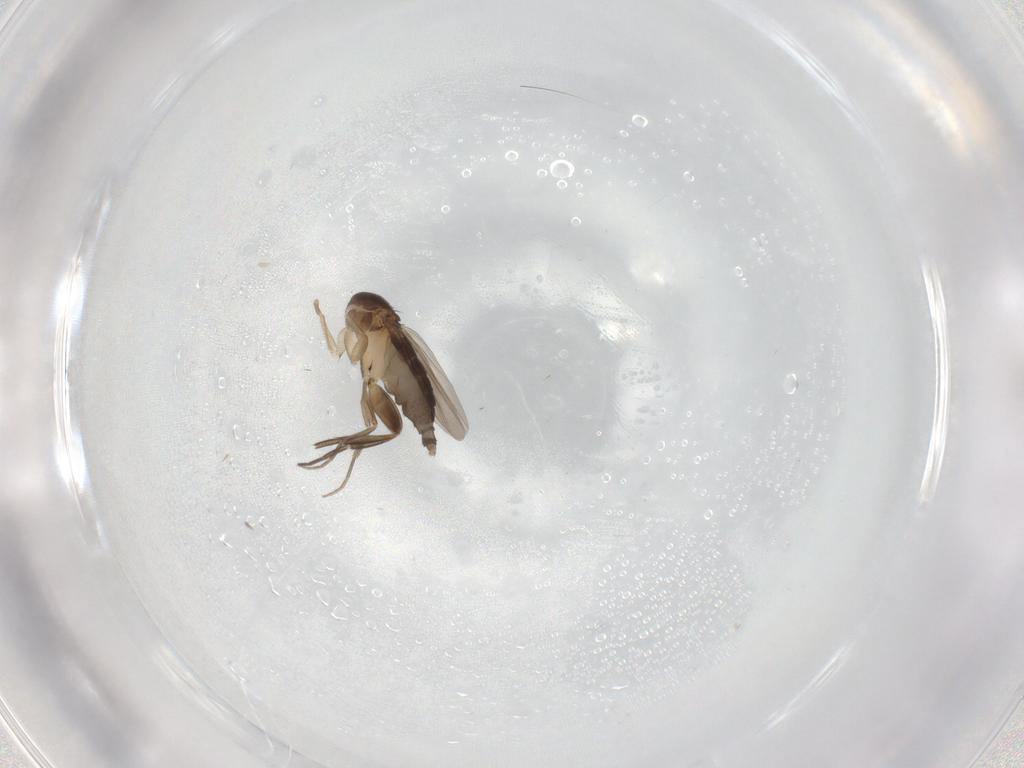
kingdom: Animalia
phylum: Arthropoda
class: Insecta
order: Diptera
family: Phoridae
